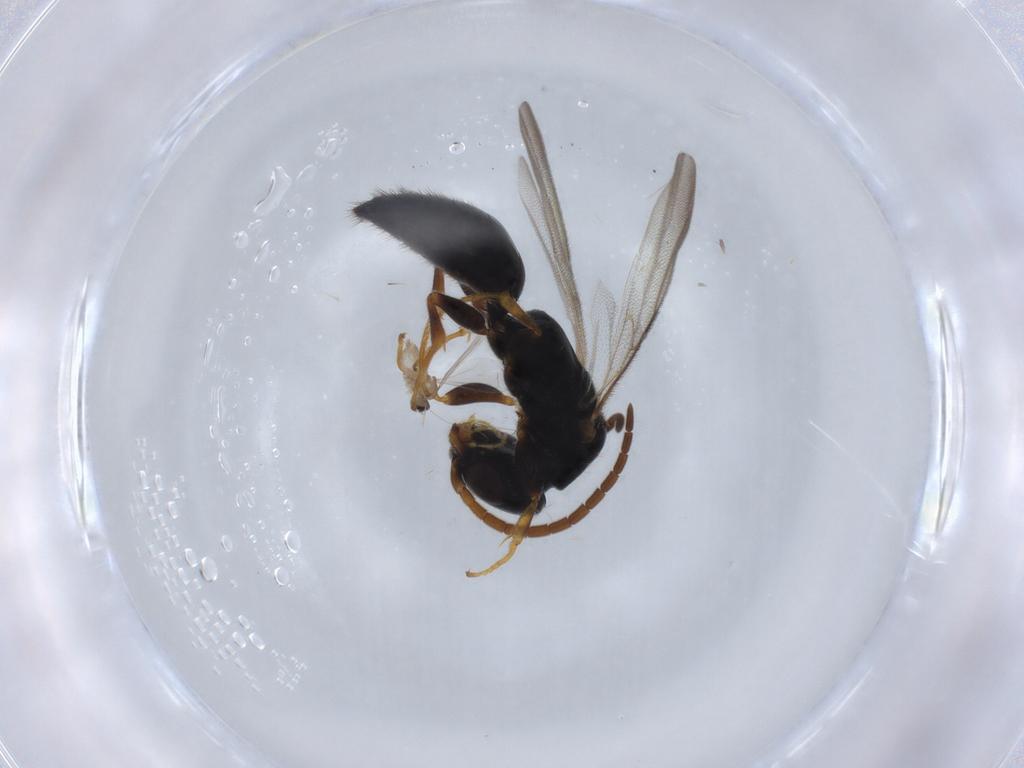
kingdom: Animalia
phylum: Arthropoda
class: Insecta
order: Diptera
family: Cecidomyiidae
